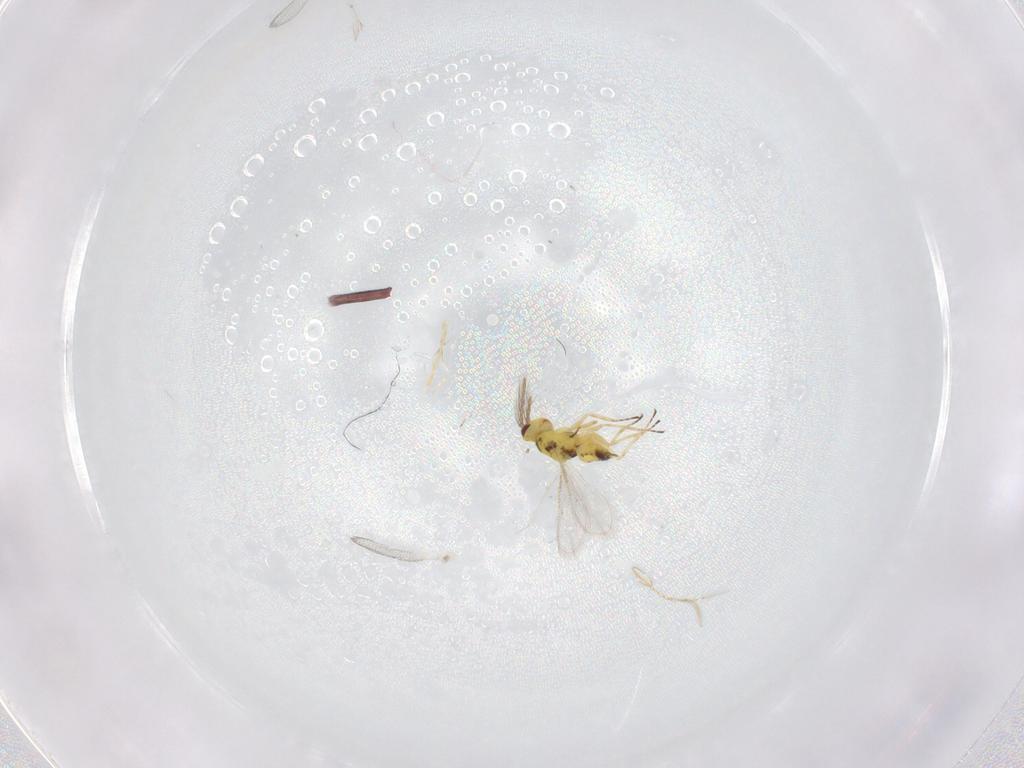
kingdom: Animalia
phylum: Arthropoda
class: Insecta
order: Hymenoptera
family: Eulophidae
